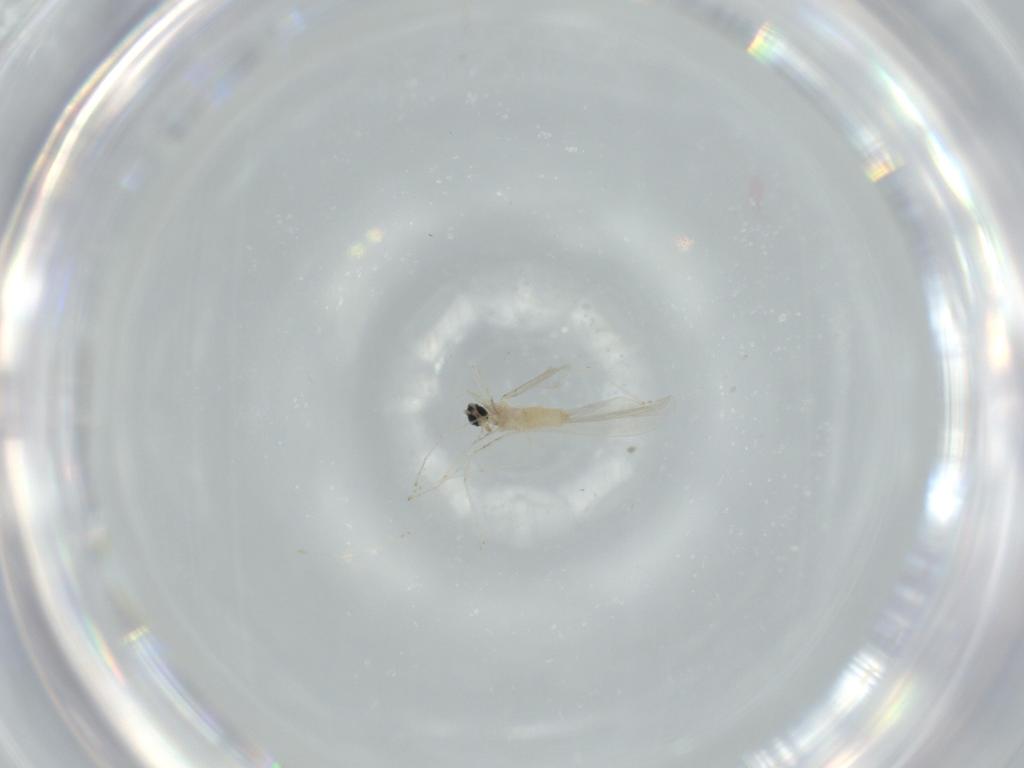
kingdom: Animalia
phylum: Arthropoda
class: Insecta
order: Diptera
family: Cecidomyiidae
